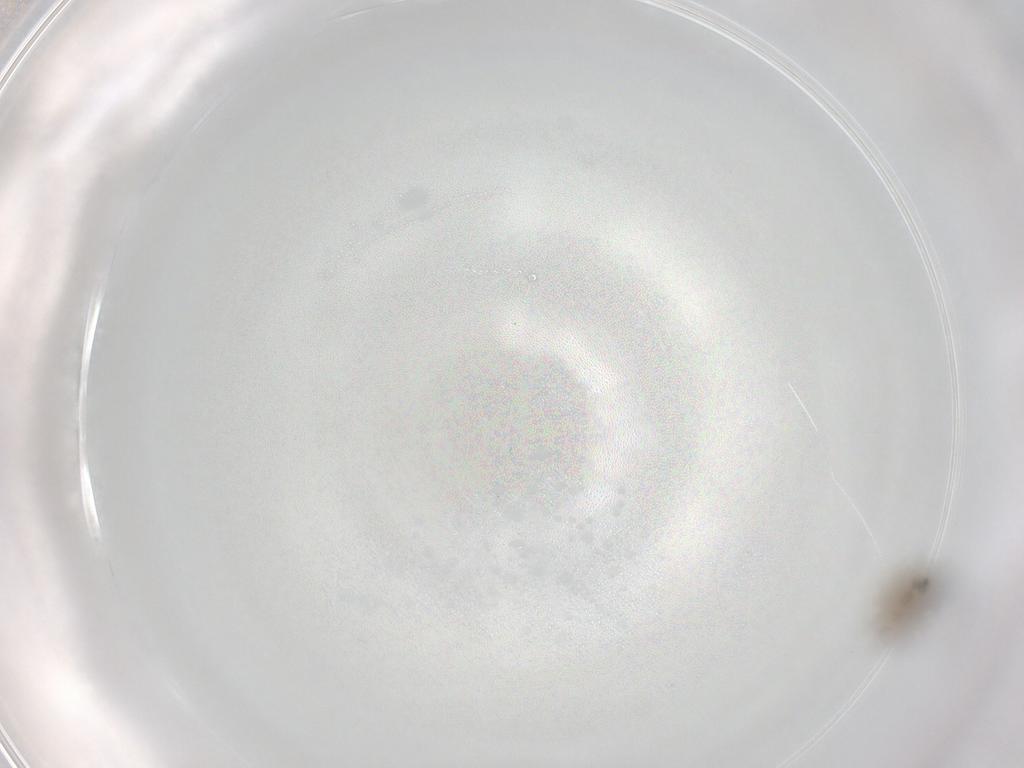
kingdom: Animalia
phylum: Arthropoda
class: Insecta
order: Hymenoptera
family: Mymaridae
